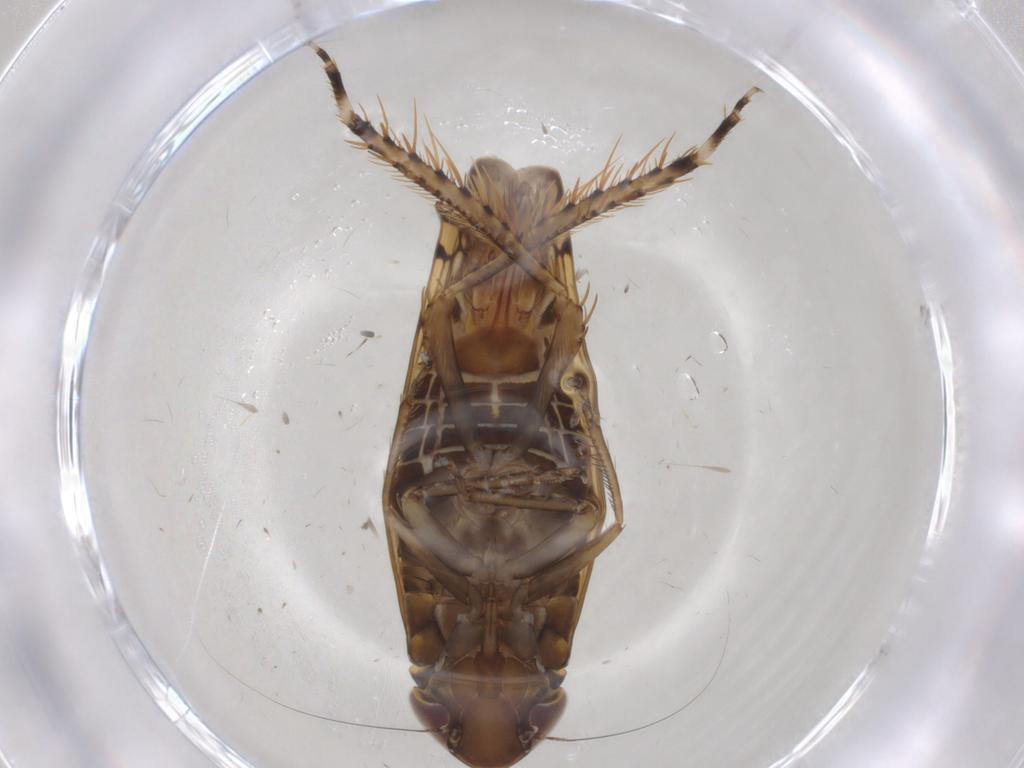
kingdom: Animalia
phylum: Arthropoda
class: Insecta
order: Hemiptera
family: Cicadellidae
